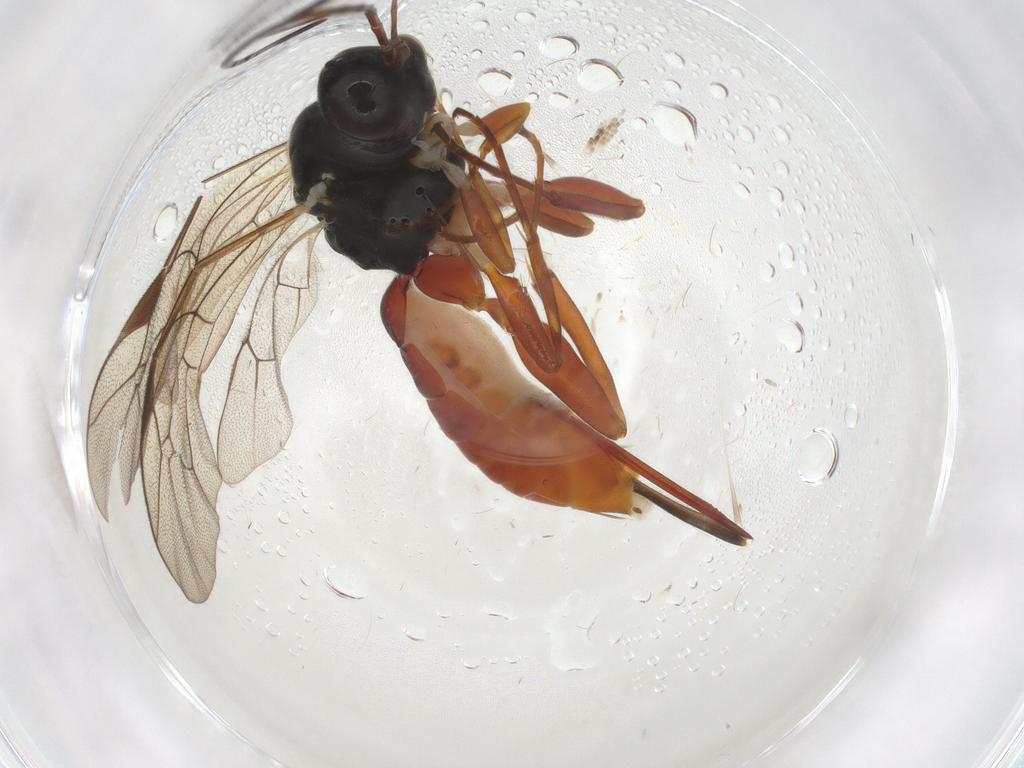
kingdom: Animalia
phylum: Arthropoda
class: Insecta
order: Hymenoptera
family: Ichneumonidae
